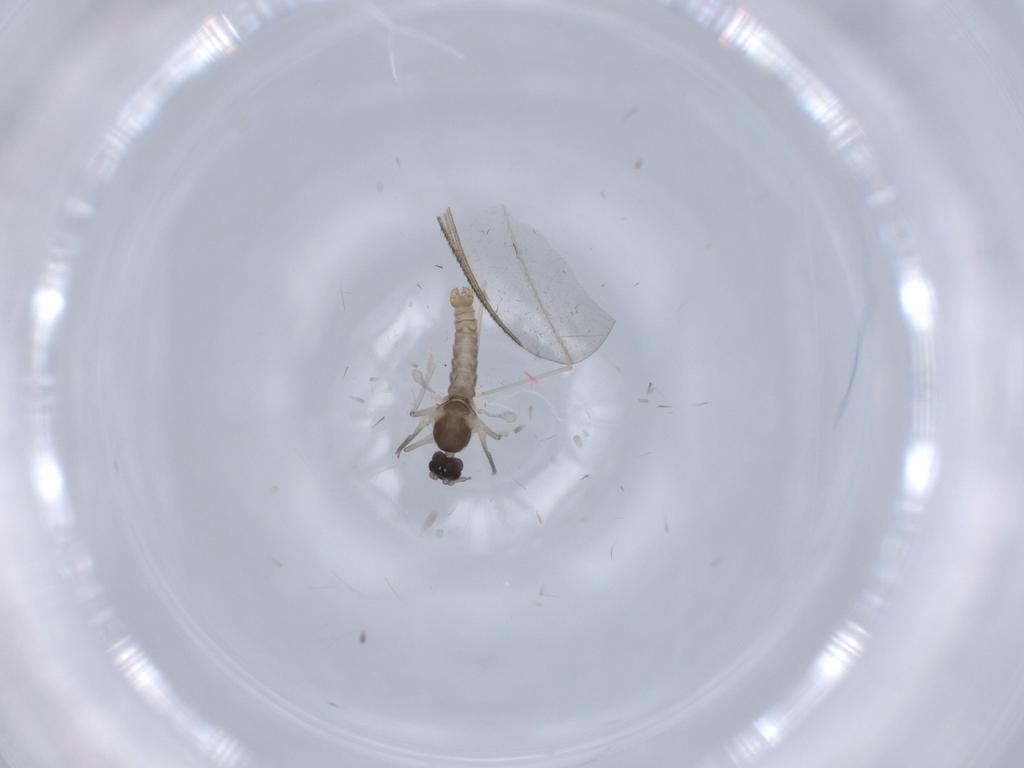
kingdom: Animalia
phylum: Arthropoda
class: Insecta
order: Diptera
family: Simuliidae
